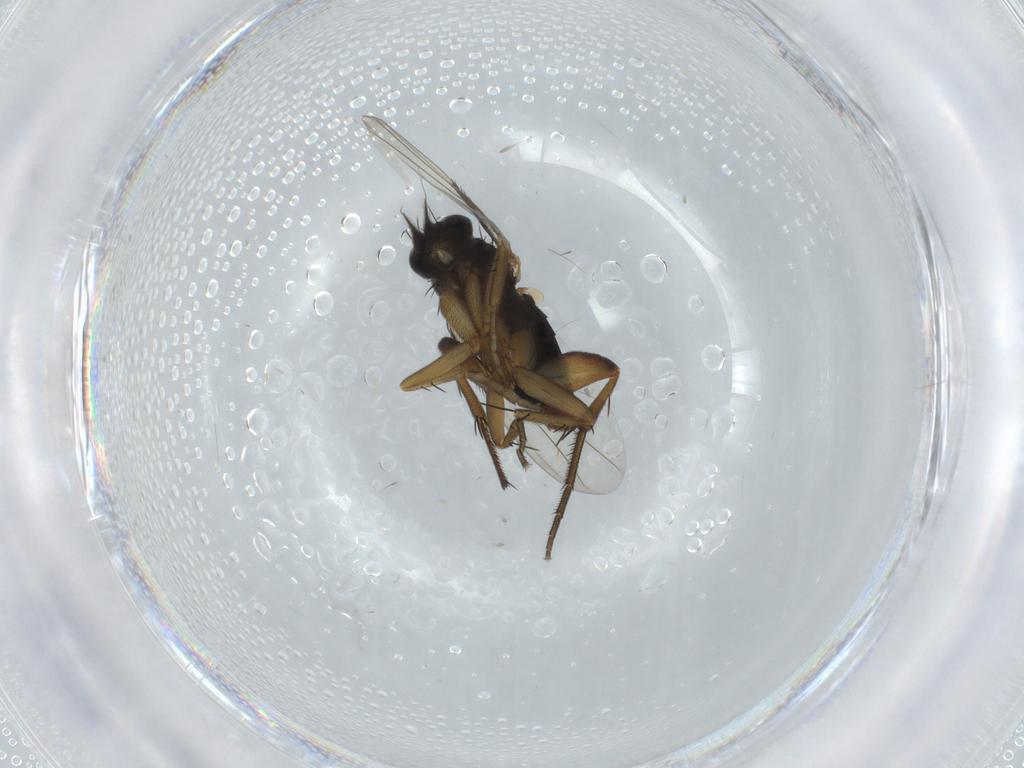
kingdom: Animalia
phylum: Arthropoda
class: Insecta
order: Diptera
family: Phoridae
